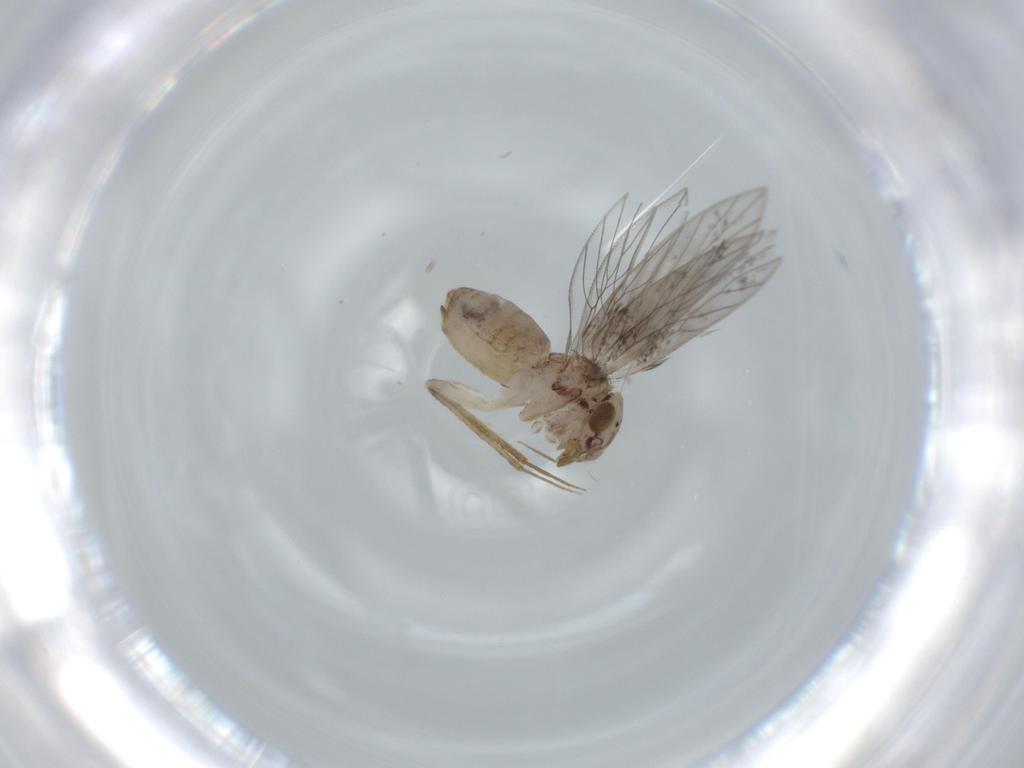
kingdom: Animalia
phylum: Arthropoda
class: Insecta
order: Psocodea
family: Lepidopsocidae
